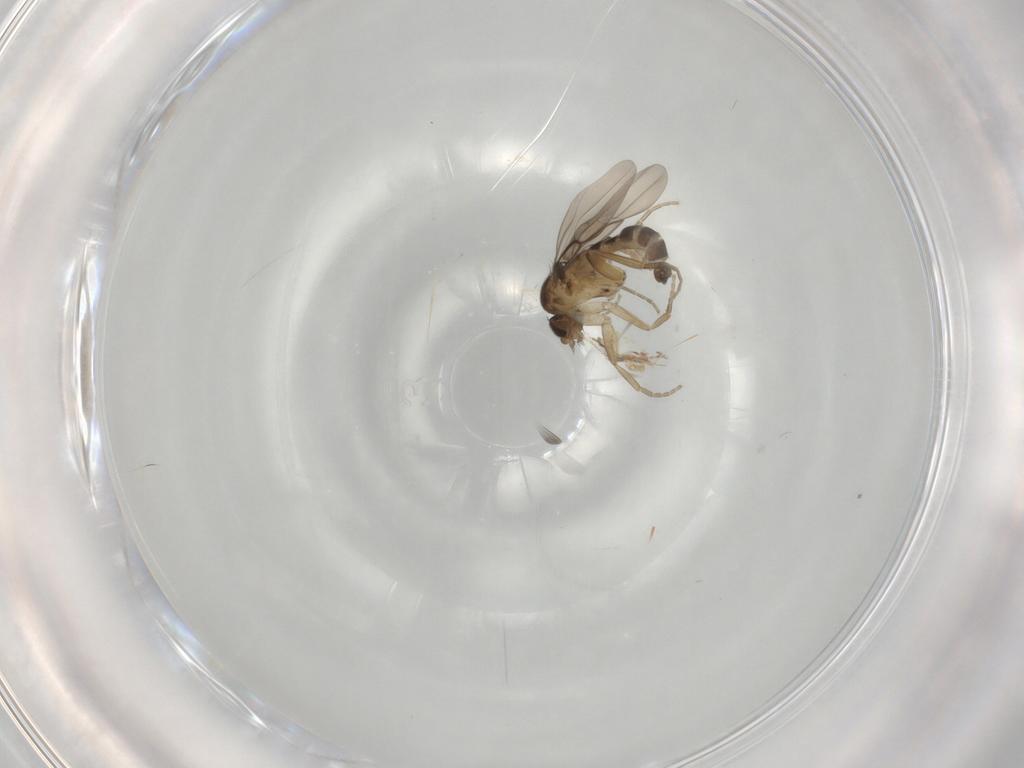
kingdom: Animalia
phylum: Arthropoda
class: Insecta
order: Diptera
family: Phoridae
